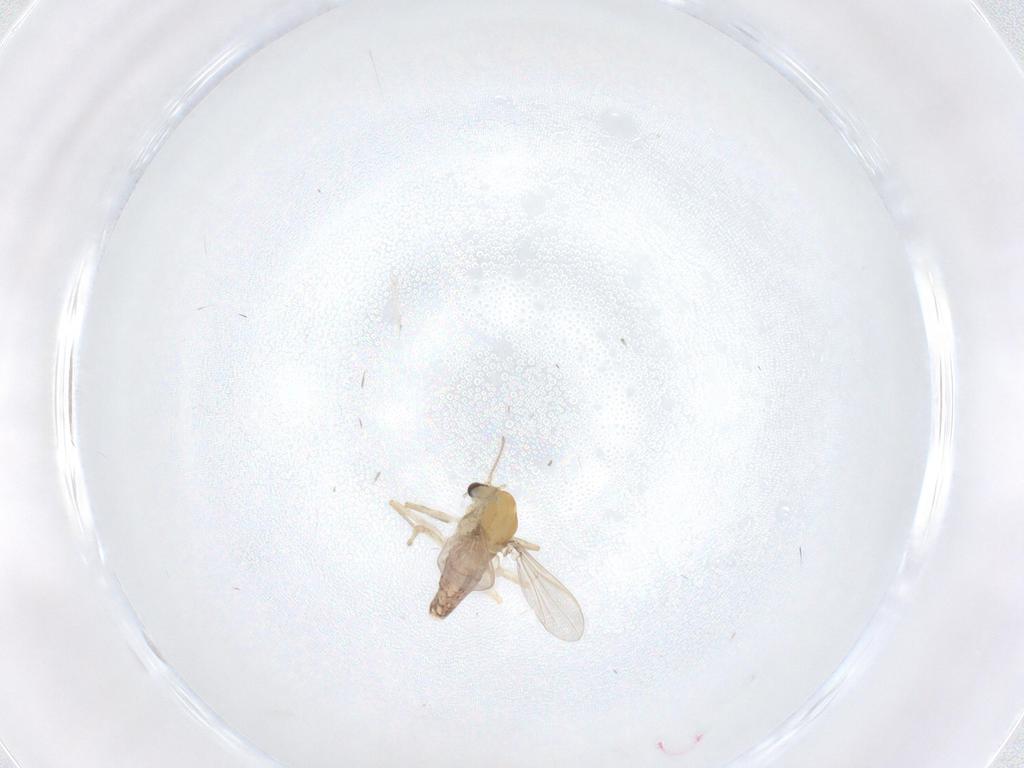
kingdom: Animalia
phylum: Arthropoda
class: Insecta
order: Diptera
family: Chironomidae
